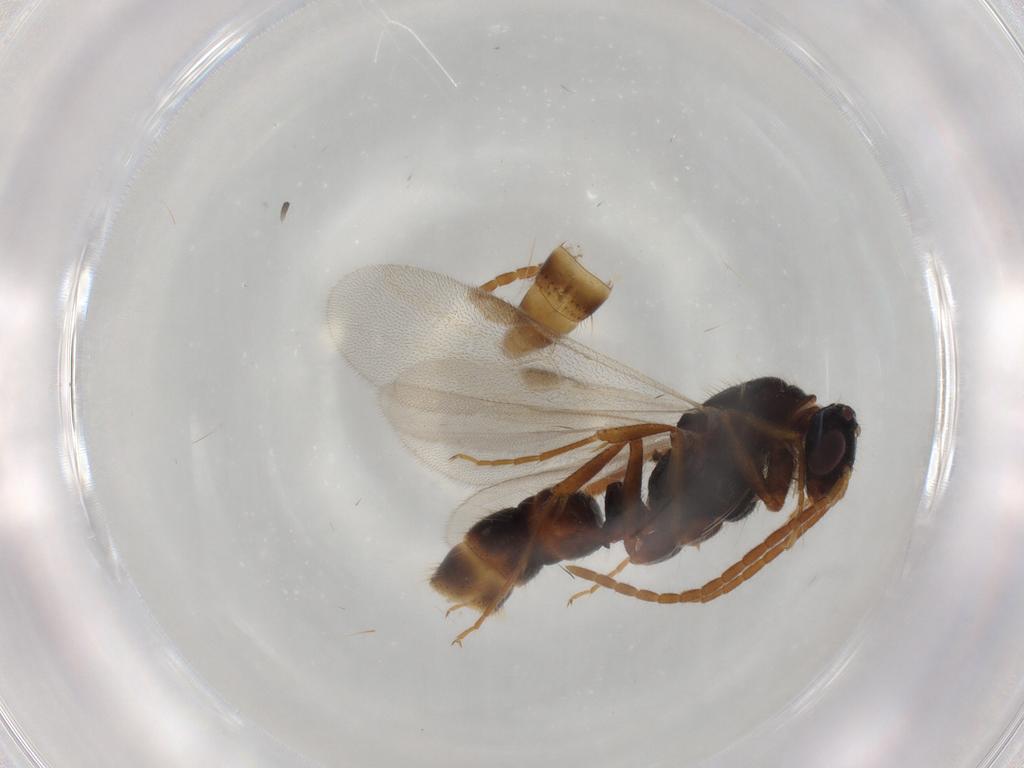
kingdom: Animalia
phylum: Arthropoda
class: Insecta
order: Hymenoptera
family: Formicidae
